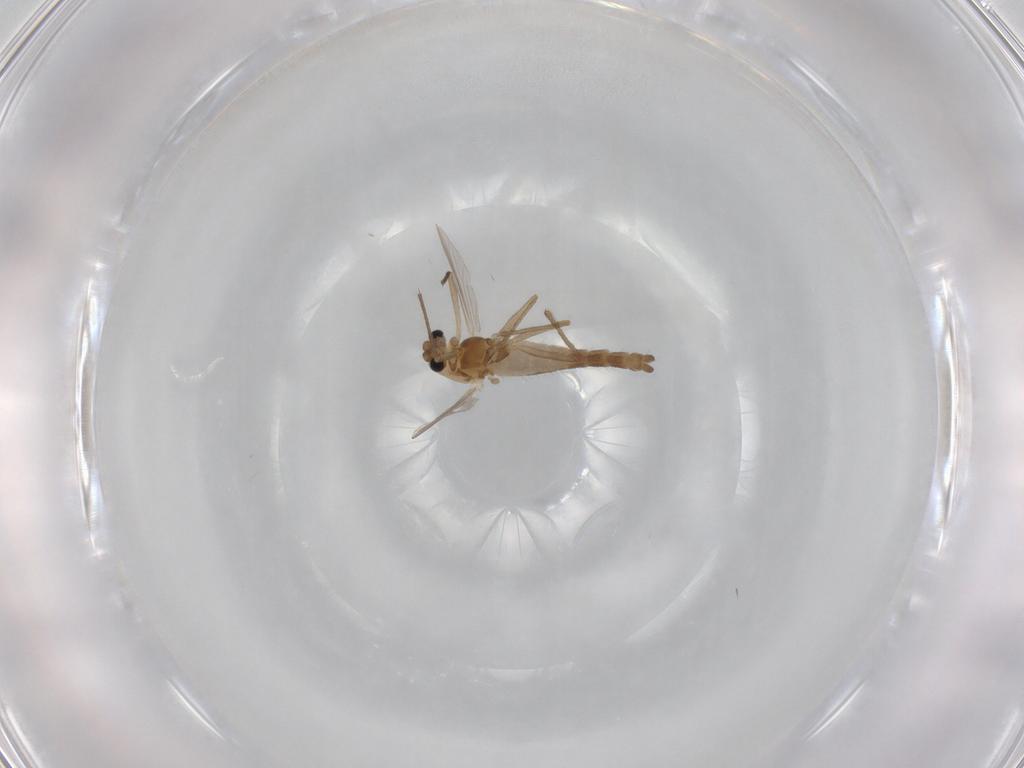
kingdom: Animalia
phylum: Arthropoda
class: Insecta
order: Diptera
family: Chironomidae
